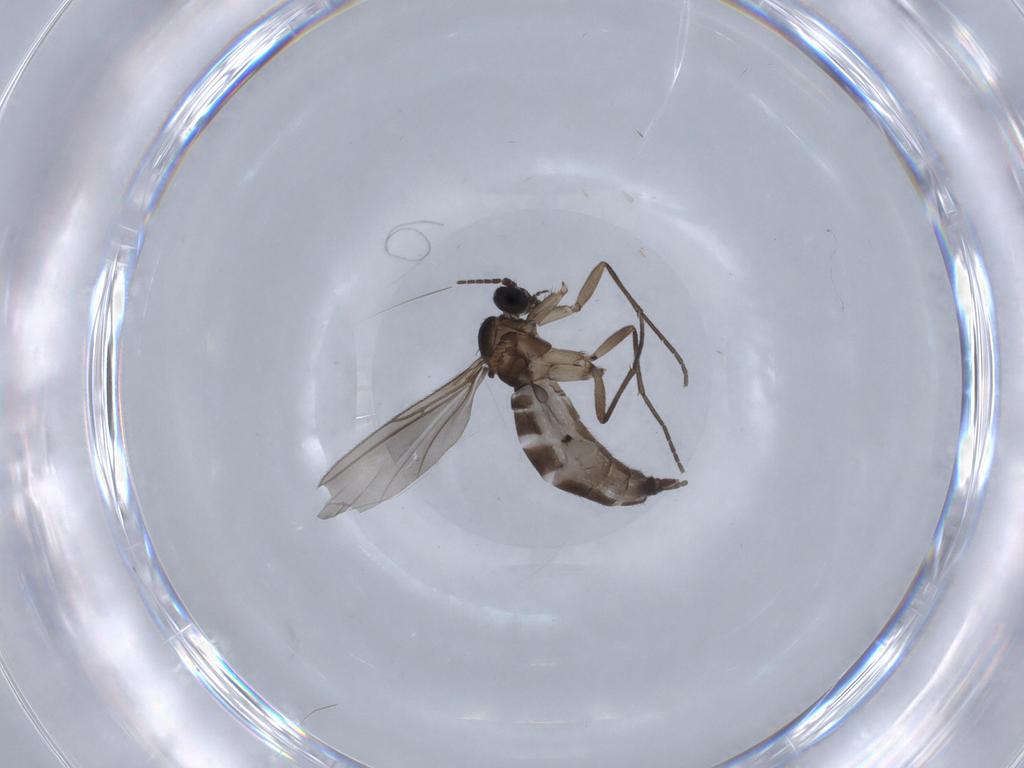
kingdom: Animalia
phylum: Arthropoda
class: Insecta
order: Diptera
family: Sciaridae
